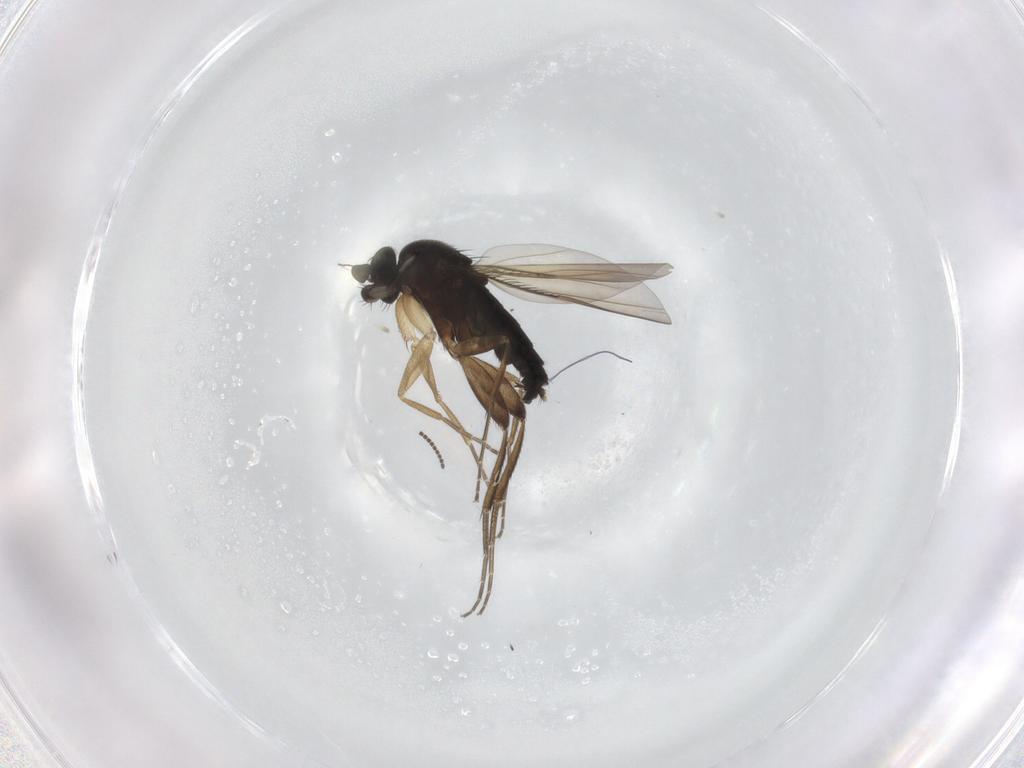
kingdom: Animalia
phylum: Arthropoda
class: Insecta
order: Diptera
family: Phoridae
